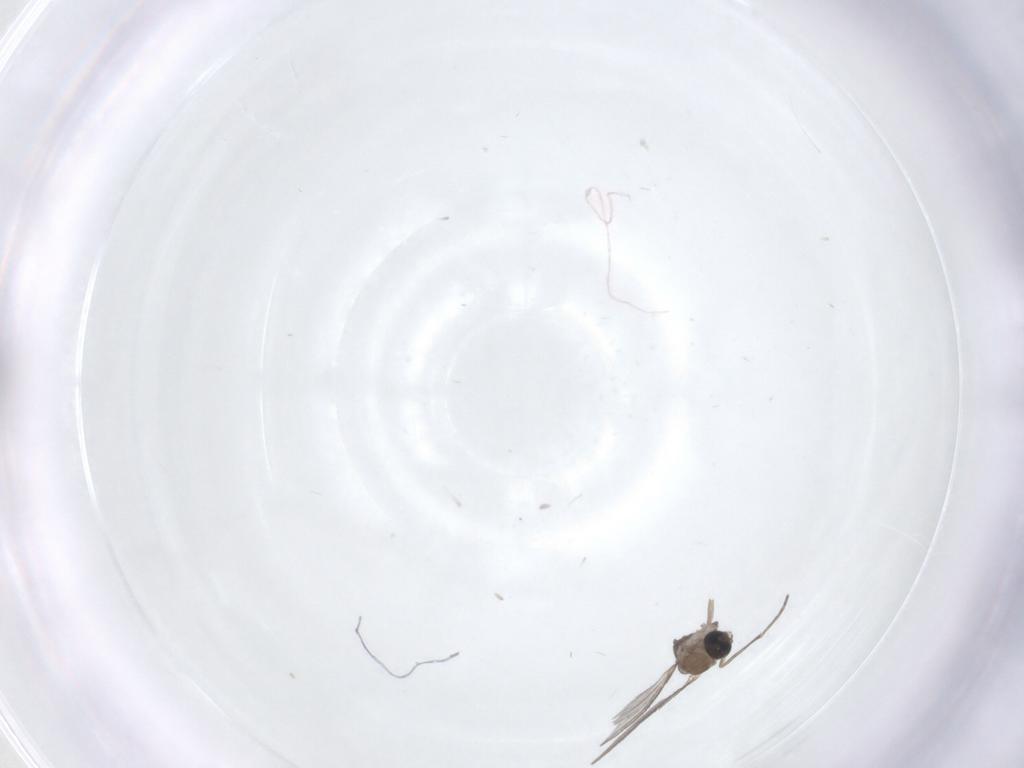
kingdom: Animalia
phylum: Arthropoda
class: Insecta
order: Diptera
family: Sciaridae
